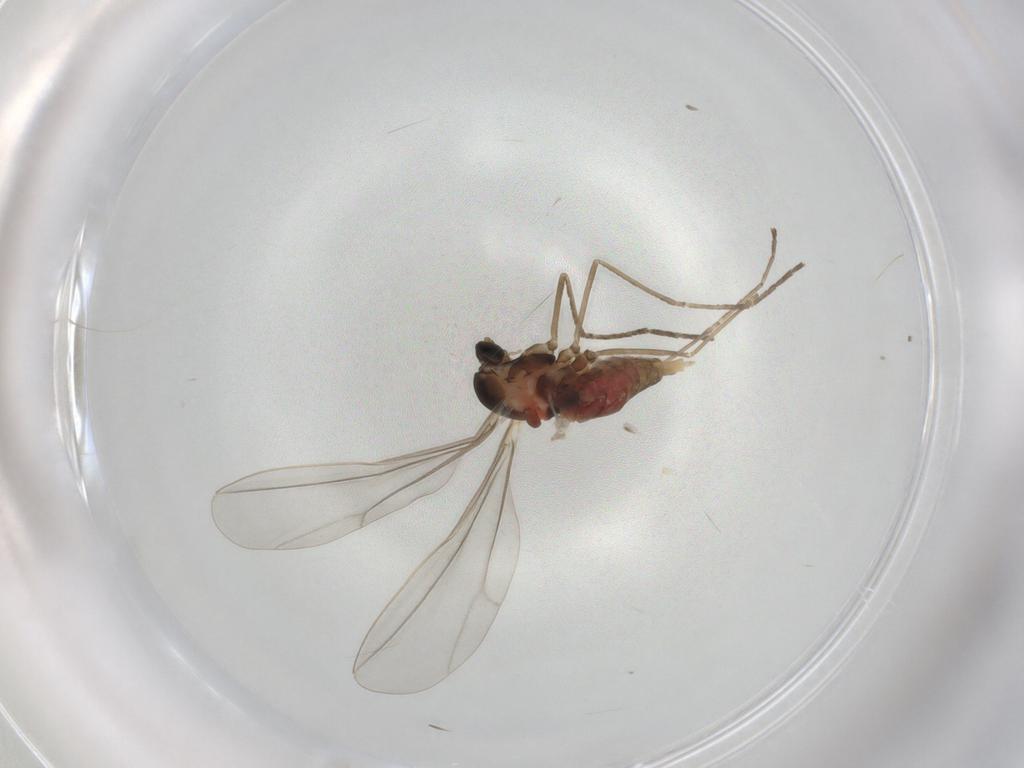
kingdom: Animalia
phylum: Arthropoda
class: Insecta
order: Diptera
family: Cecidomyiidae
